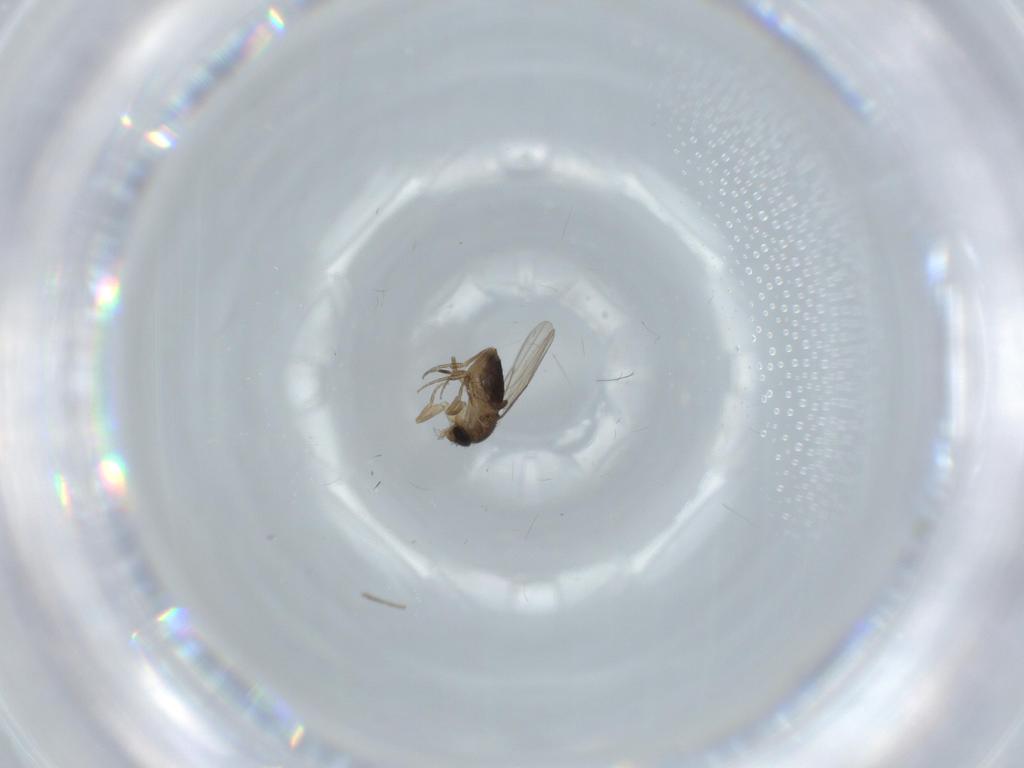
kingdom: Animalia
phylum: Arthropoda
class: Insecta
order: Diptera
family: Phoridae
